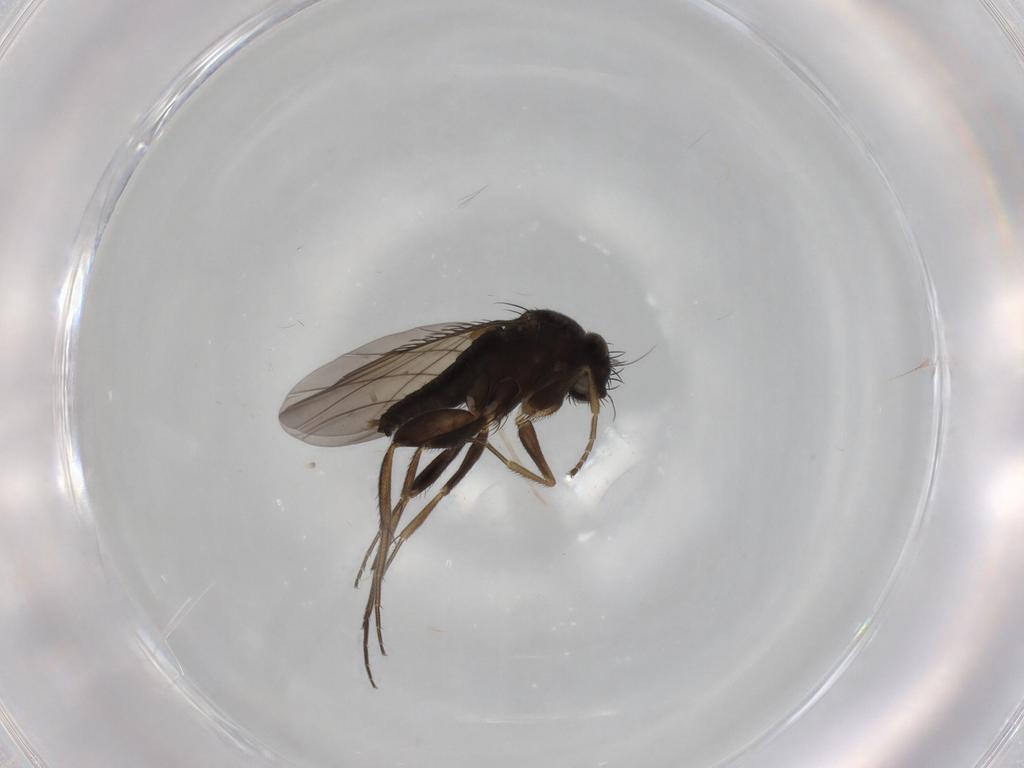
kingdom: Animalia
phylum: Arthropoda
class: Insecta
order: Diptera
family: Phoridae
